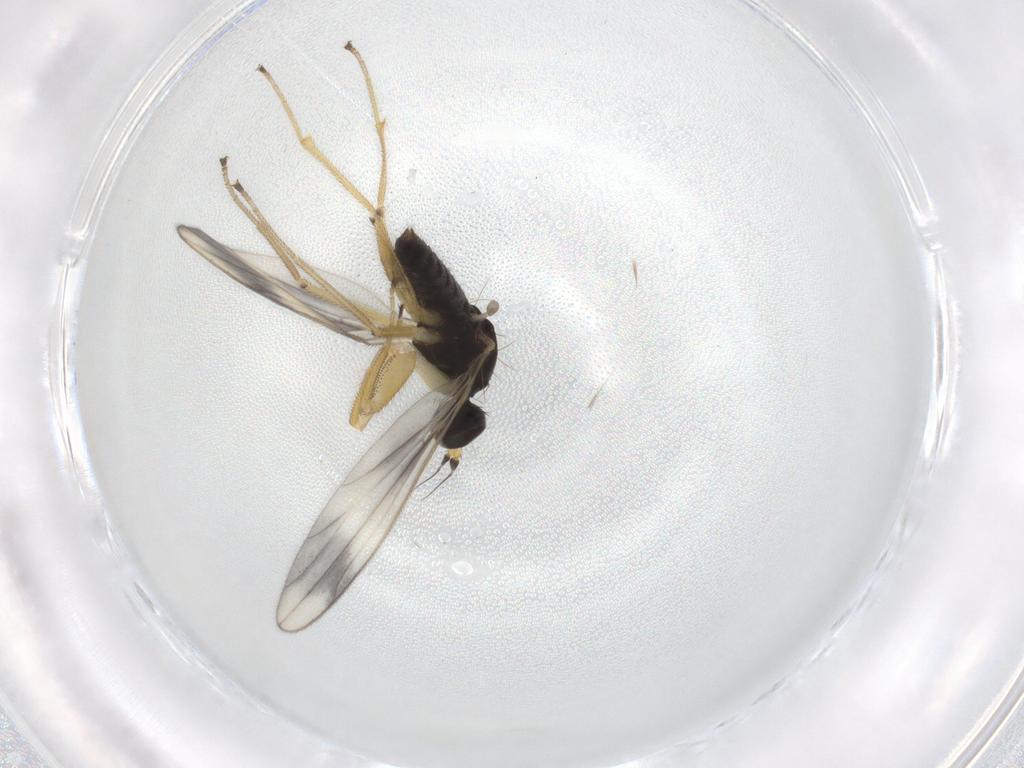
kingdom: Animalia
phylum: Arthropoda
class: Insecta
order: Diptera
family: Empididae
